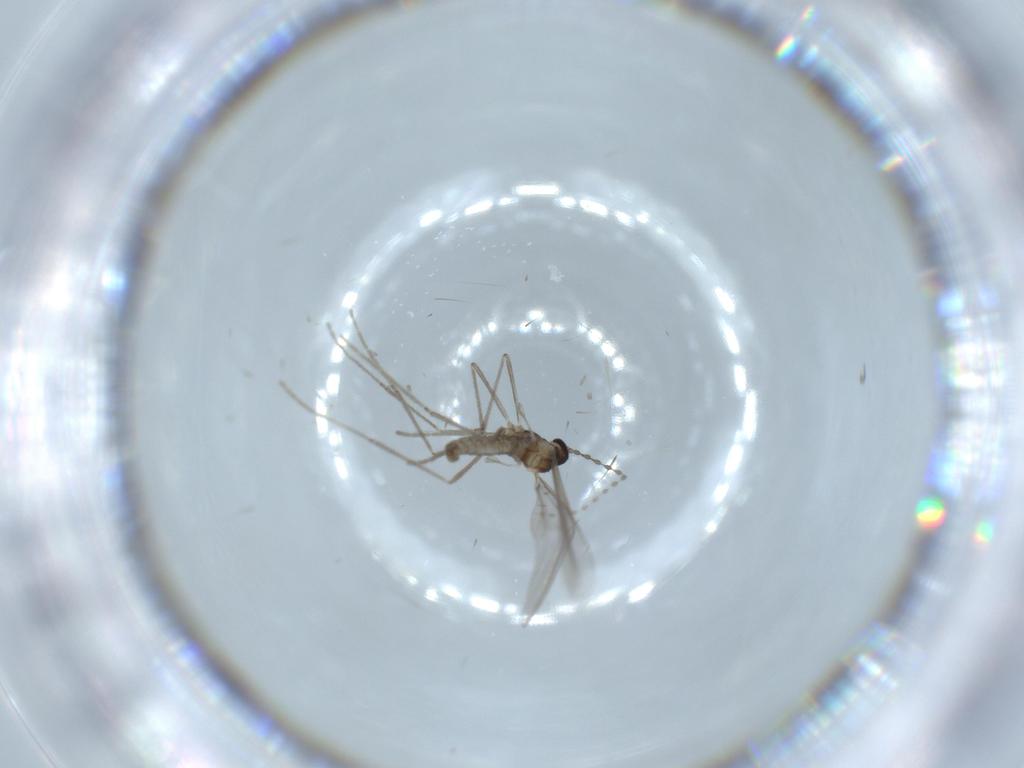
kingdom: Animalia
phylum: Arthropoda
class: Insecta
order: Diptera
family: Cecidomyiidae
